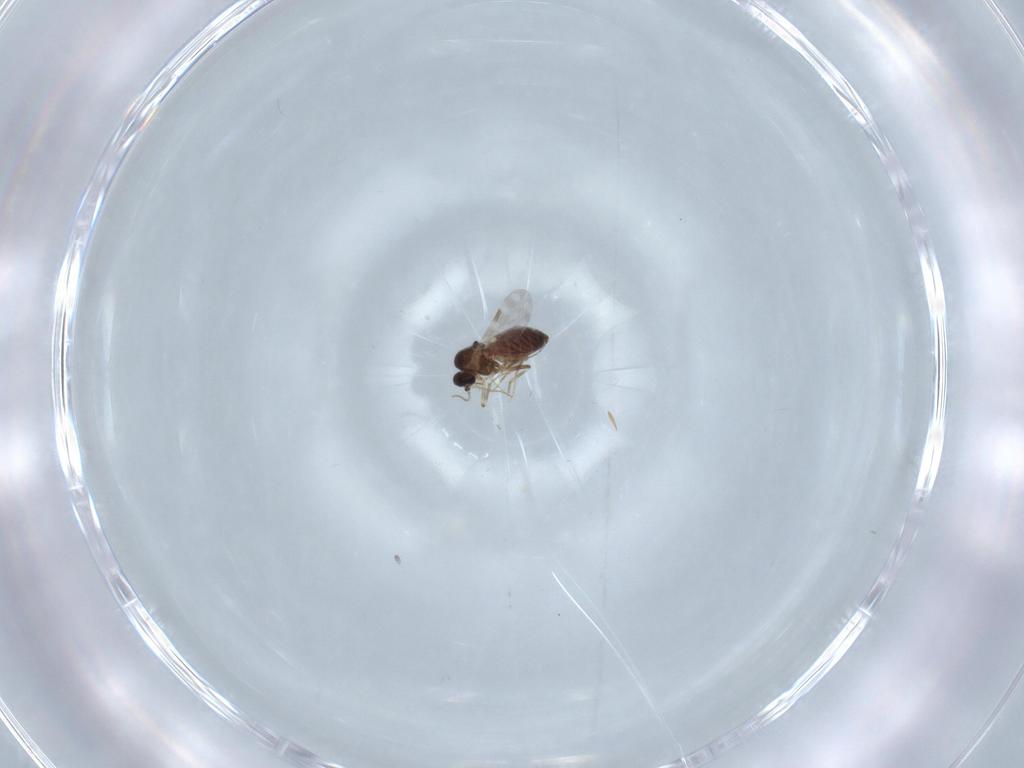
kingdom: Animalia
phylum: Arthropoda
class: Insecta
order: Diptera
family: Ceratopogonidae
